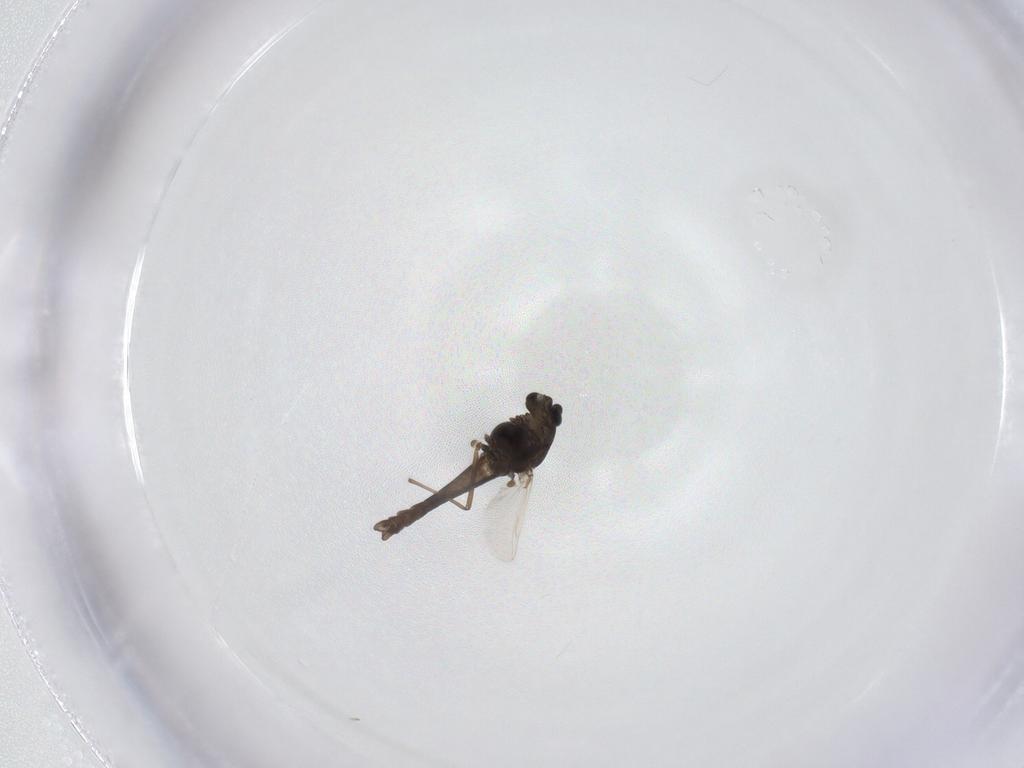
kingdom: Animalia
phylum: Arthropoda
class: Insecta
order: Diptera
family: Chironomidae
